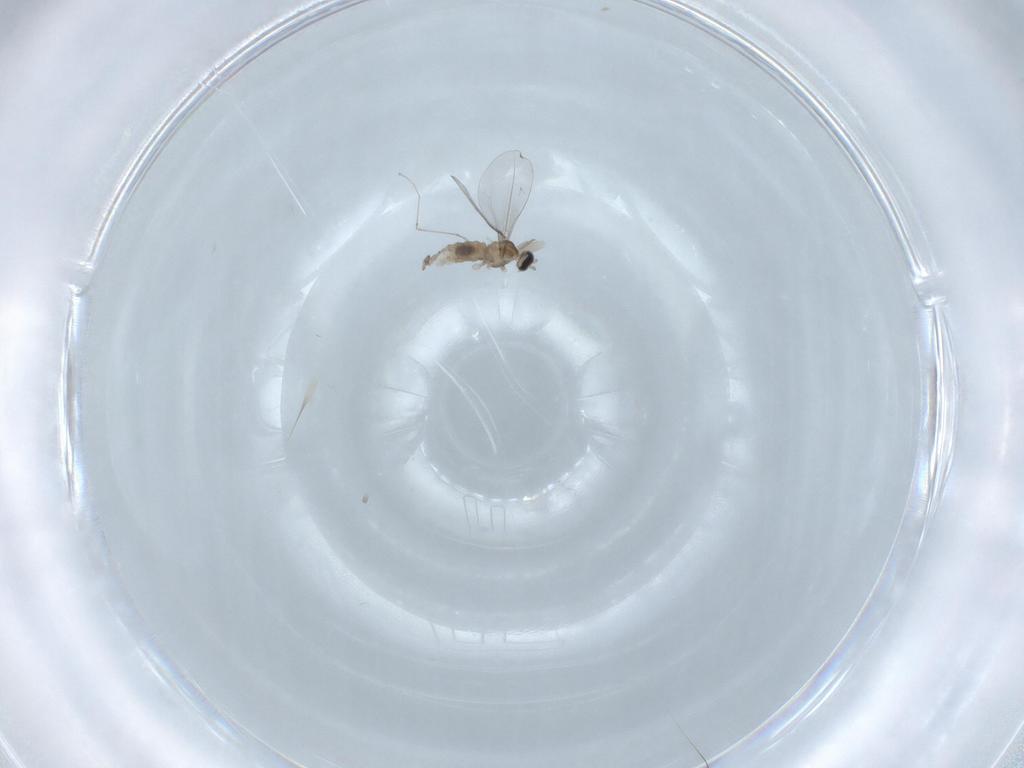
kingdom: Animalia
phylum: Arthropoda
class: Insecta
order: Diptera
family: Cecidomyiidae
